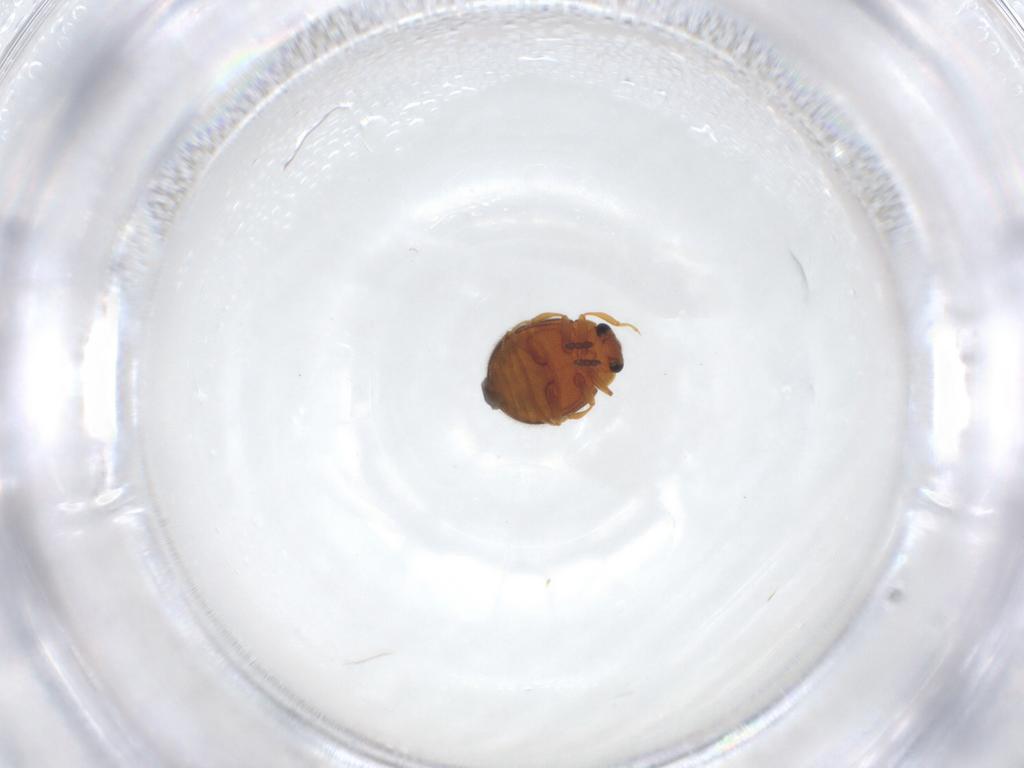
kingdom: Animalia
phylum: Arthropoda
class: Insecta
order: Coleoptera
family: Sphindidae
